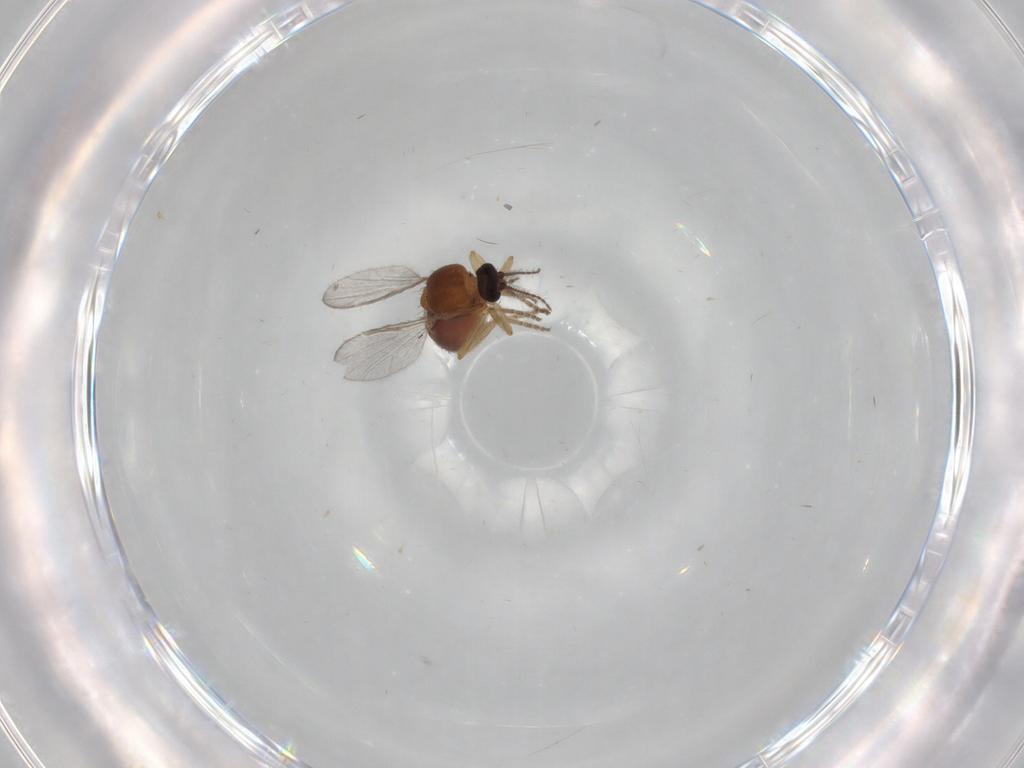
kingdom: Animalia
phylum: Arthropoda
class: Insecta
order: Diptera
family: Ceratopogonidae
